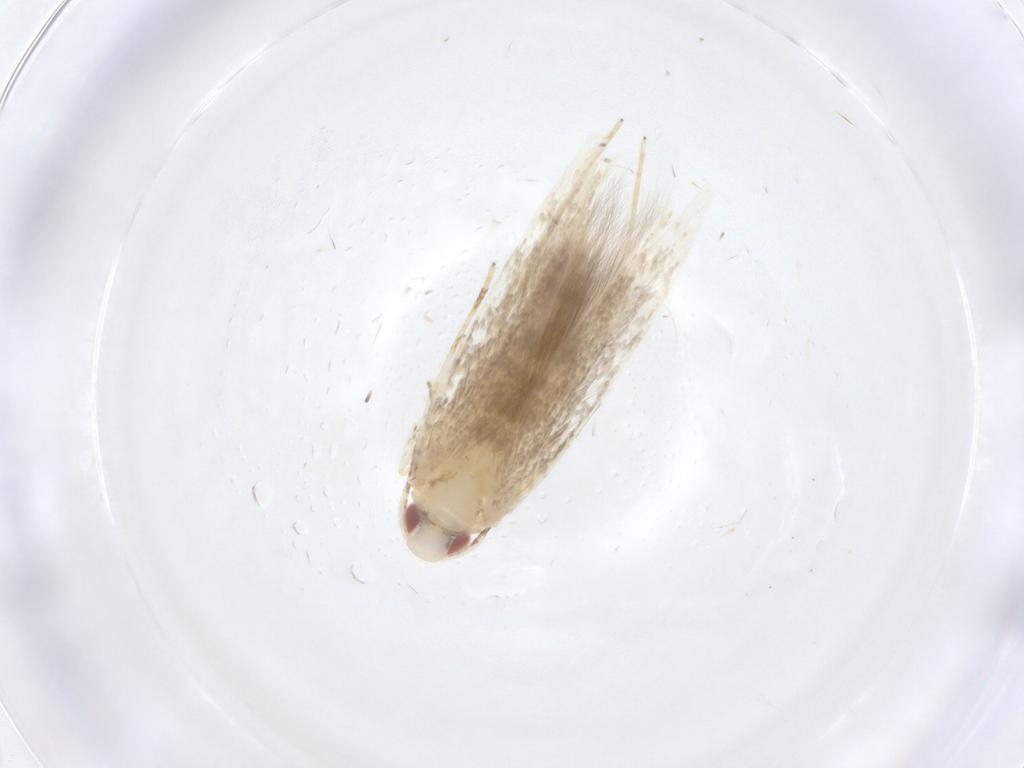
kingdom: Animalia
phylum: Arthropoda
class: Insecta
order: Lepidoptera
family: Cosmopterigidae
